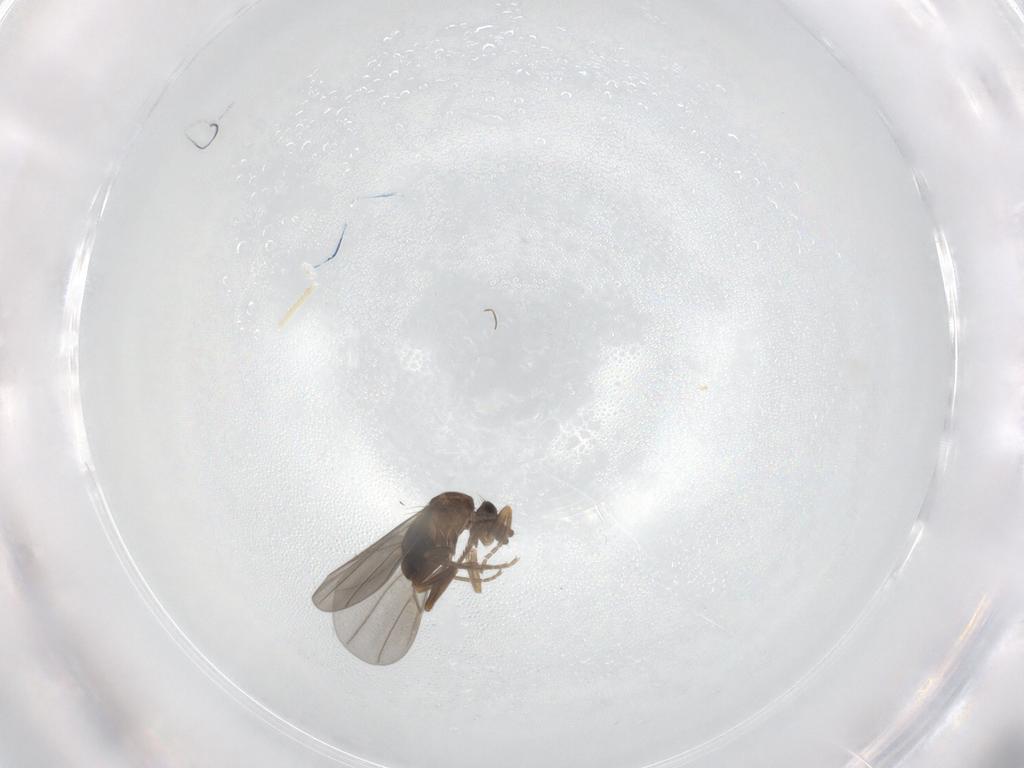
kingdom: Animalia
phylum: Arthropoda
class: Insecta
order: Diptera
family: Phoridae
